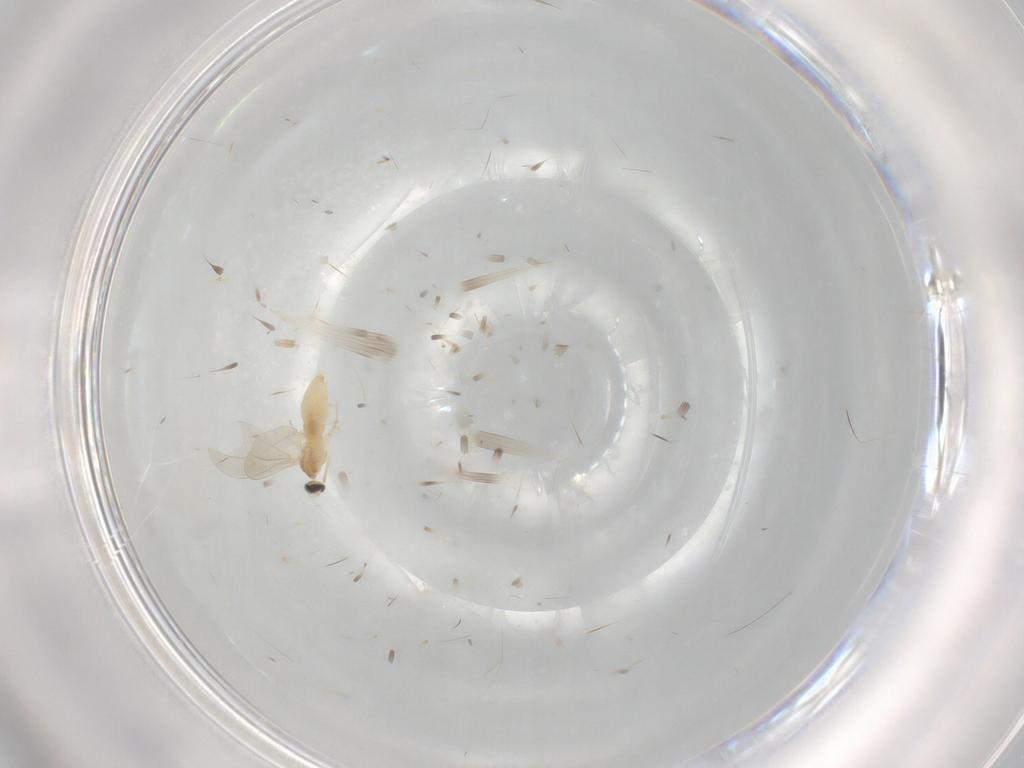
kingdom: Animalia
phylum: Arthropoda
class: Insecta
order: Diptera
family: Cecidomyiidae
